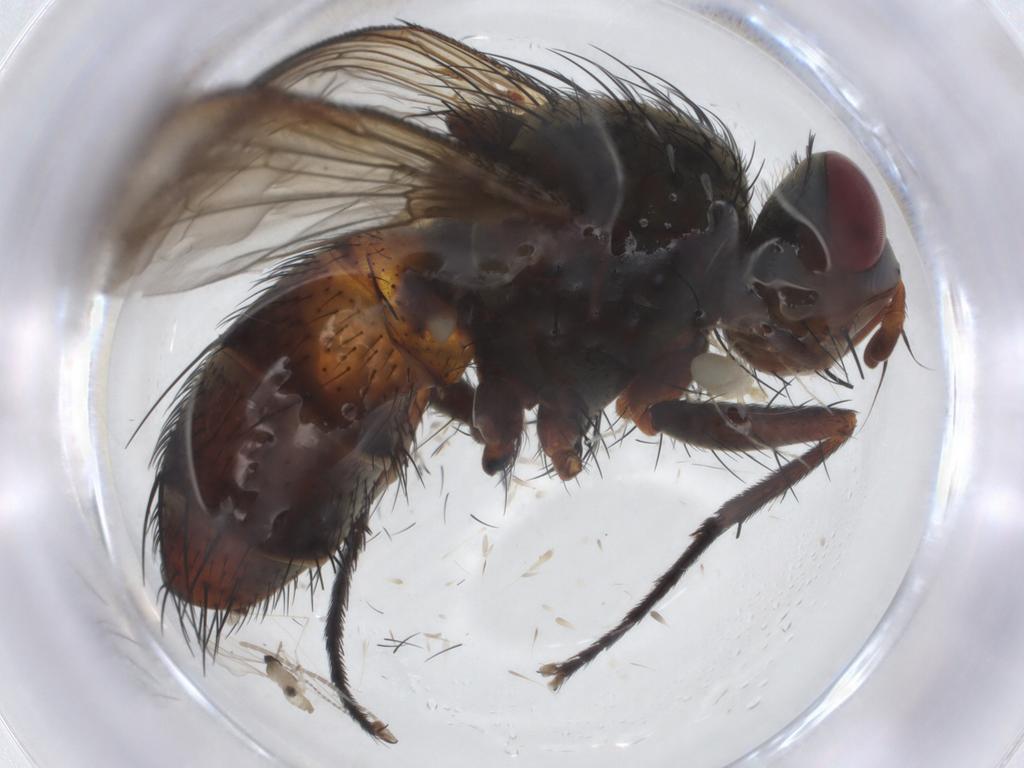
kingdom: Animalia
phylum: Arthropoda
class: Insecta
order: Diptera
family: Cecidomyiidae
